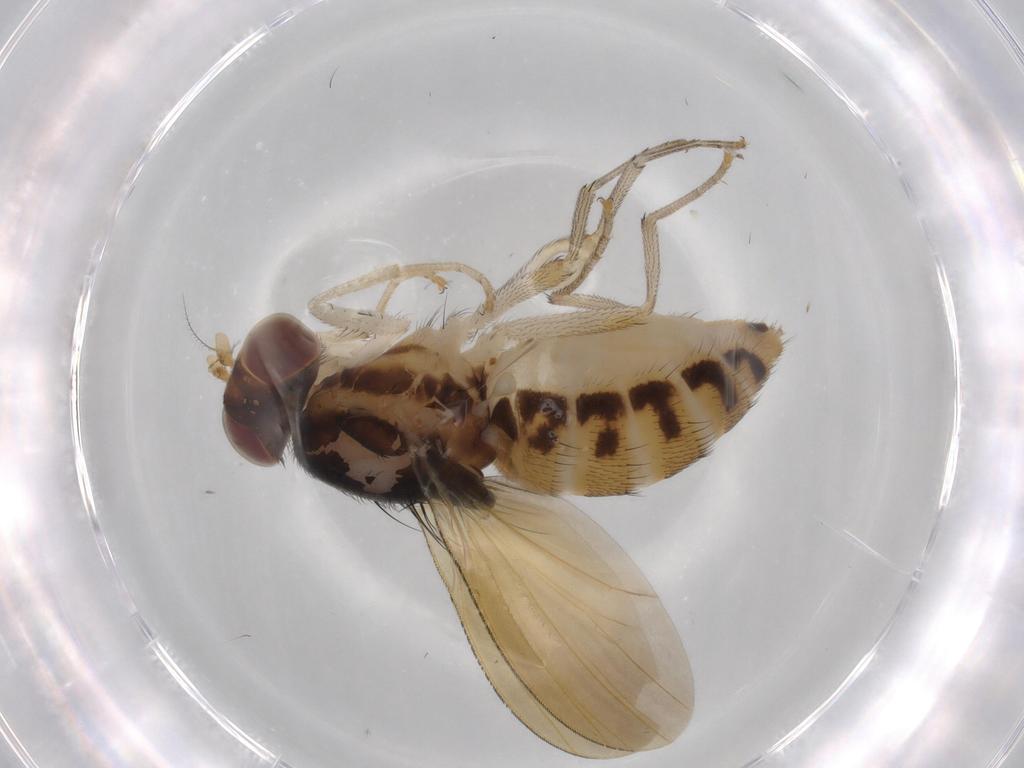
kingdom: Animalia
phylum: Arthropoda
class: Insecta
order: Diptera
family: Cecidomyiidae
